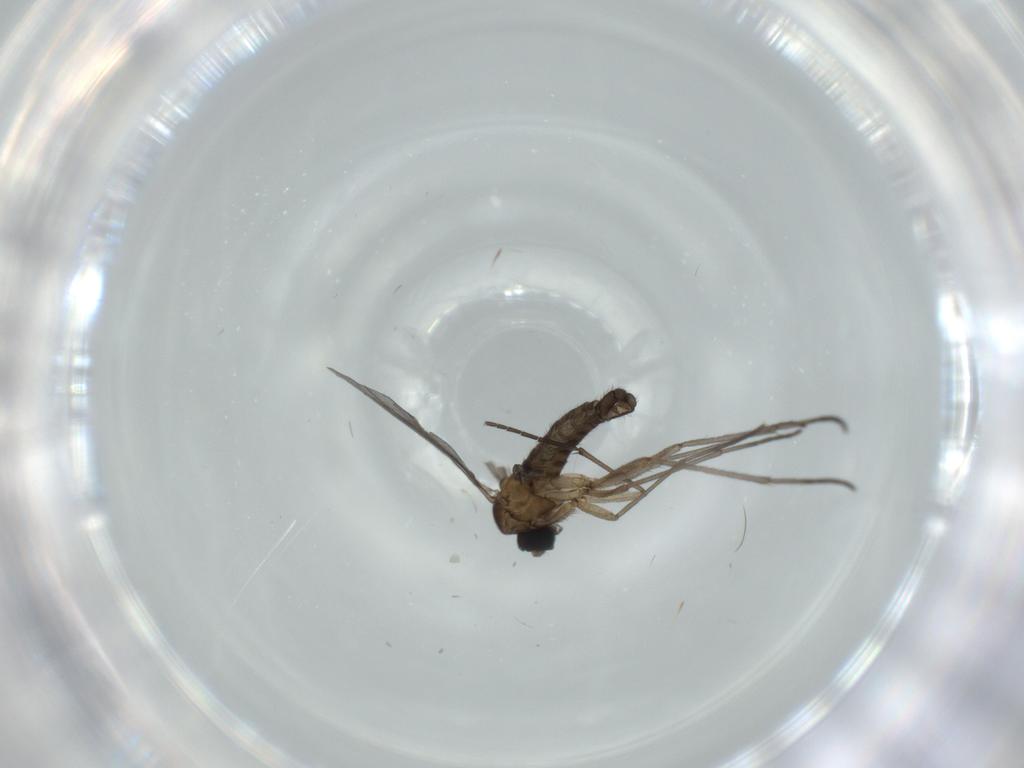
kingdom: Animalia
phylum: Arthropoda
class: Insecta
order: Diptera
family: Sciaridae
